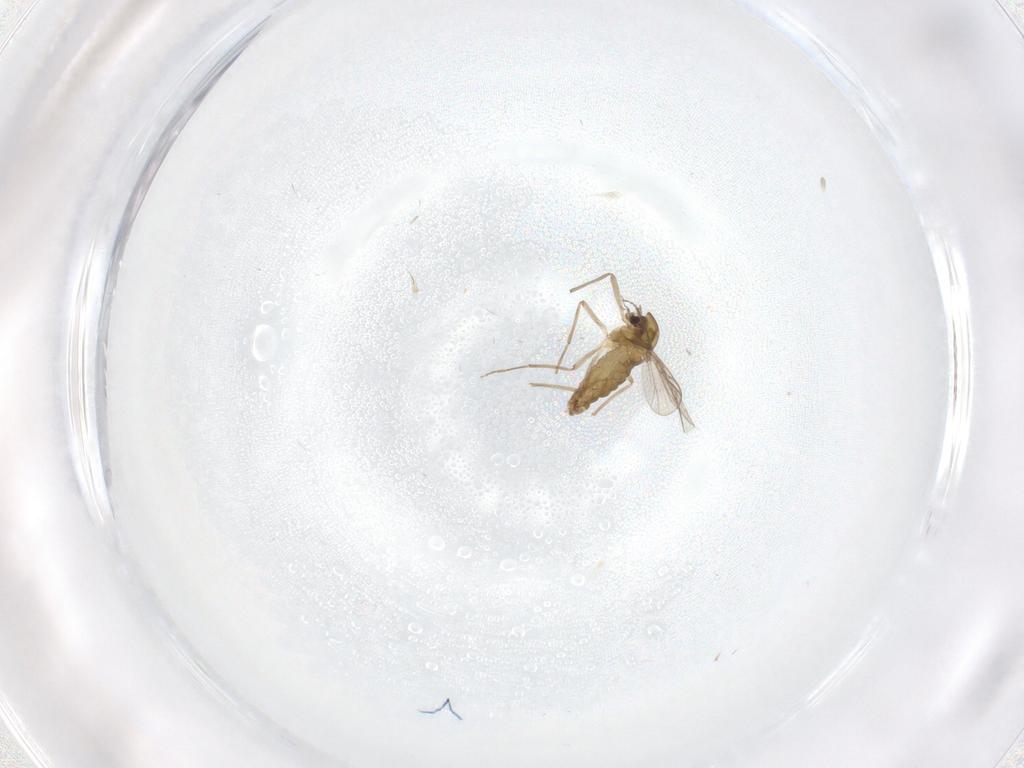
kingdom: Animalia
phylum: Arthropoda
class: Insecta
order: Diptera
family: Chironomidae
